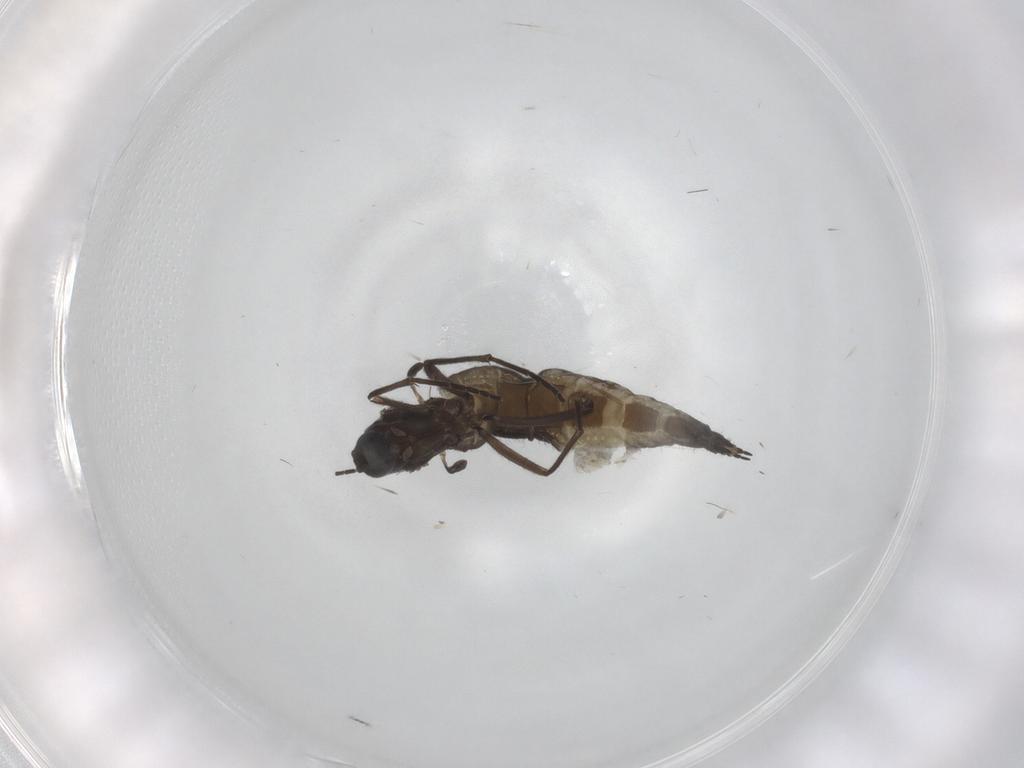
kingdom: Animalia
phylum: Arthropoda
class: Insecta
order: Diptera
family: Sciaridae
